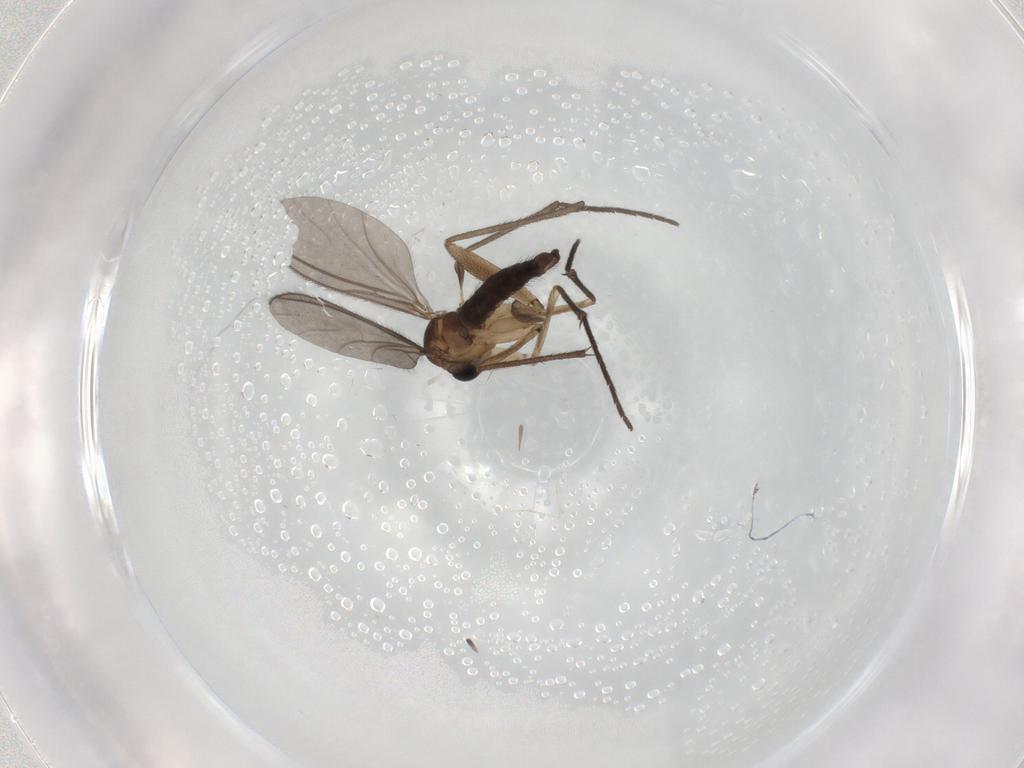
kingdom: Animalia
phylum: Arthropoda
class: Insecta
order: Diptera
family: Sciaridae
